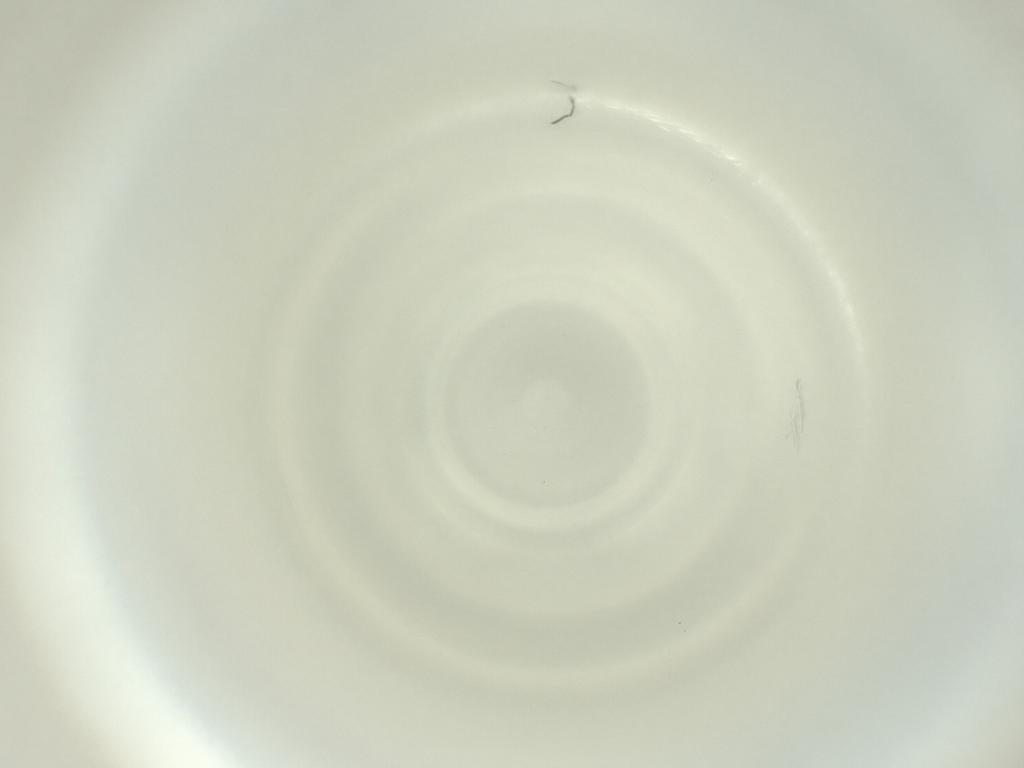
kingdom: Animalia
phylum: Arthropoda
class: Insecta
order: Diptera
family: Cecidomyiidae
